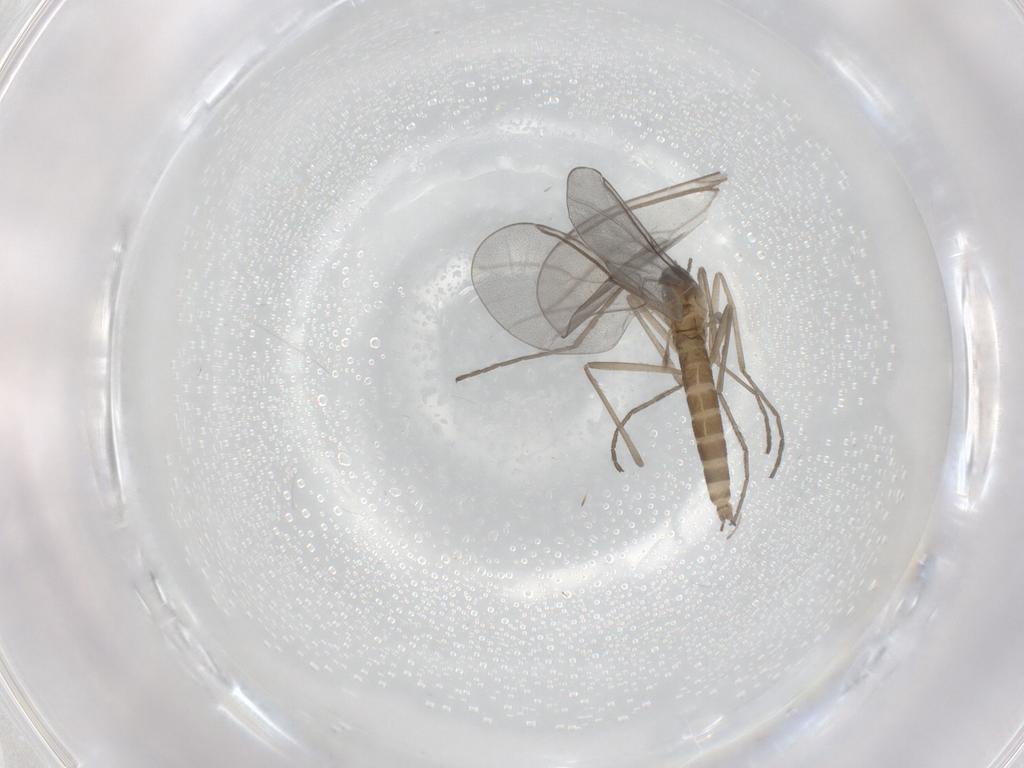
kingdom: Animalia
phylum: Arthropoda
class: Insecta
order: Diptera
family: Anthomyiidae
